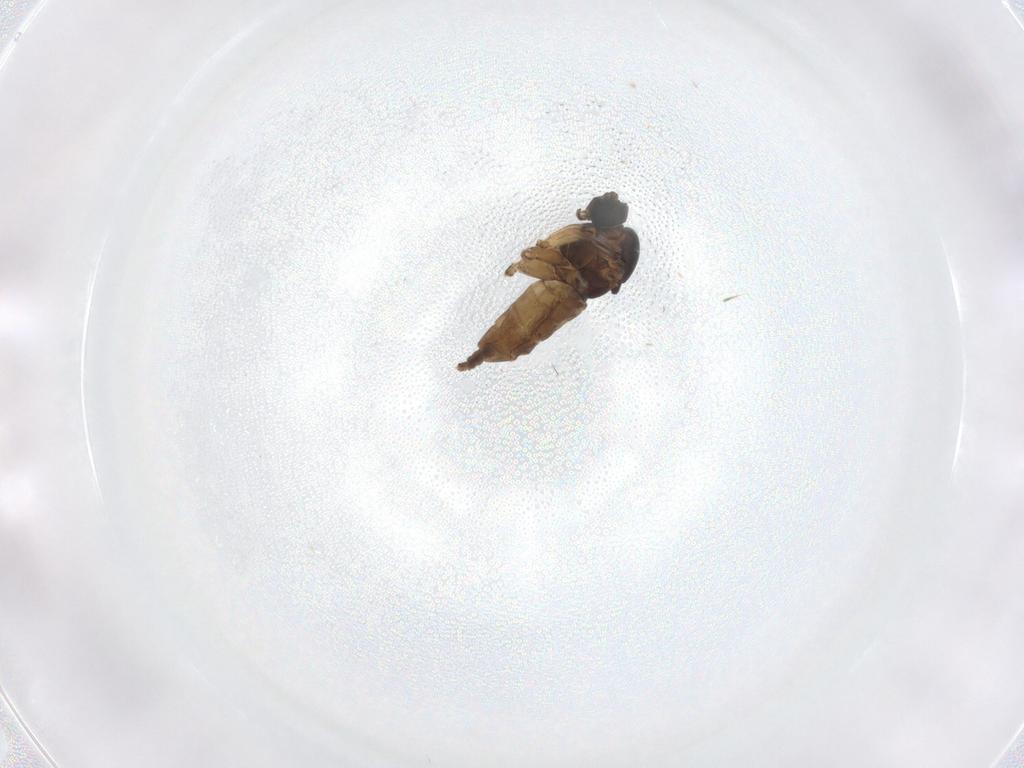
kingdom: Animalia
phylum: Arthropoda
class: Insecta
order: Diptera
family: Sciaridae
